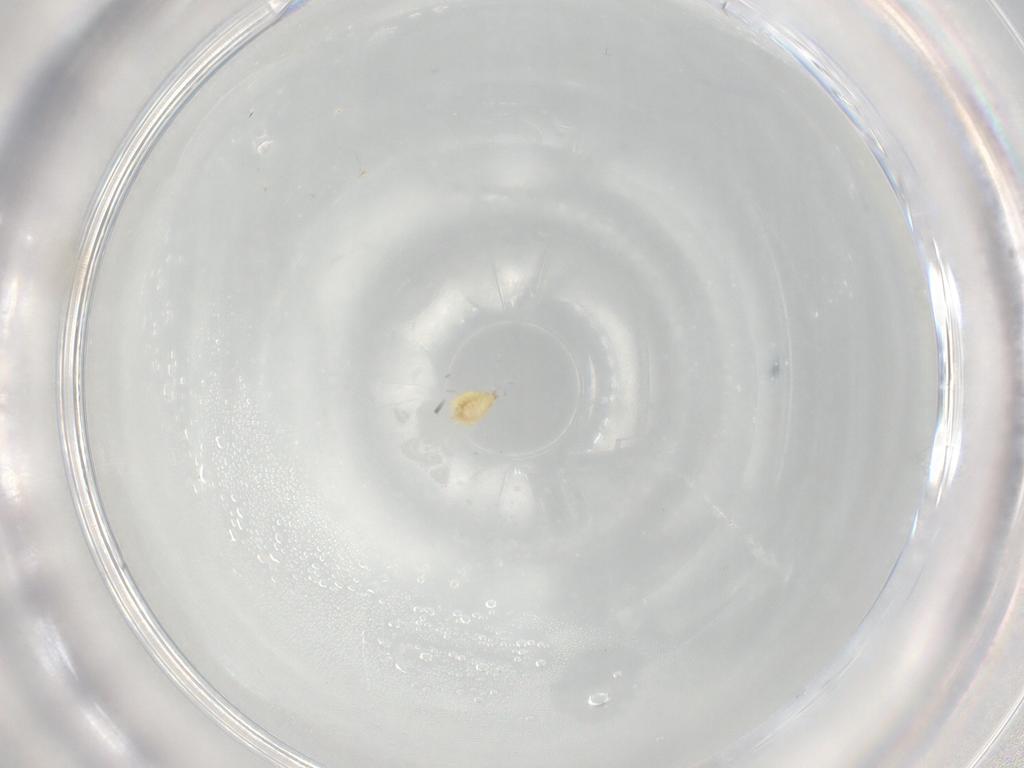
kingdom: Animalia
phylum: Arthropoda
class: Insecta
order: Diptera
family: Cecidomyiidae
